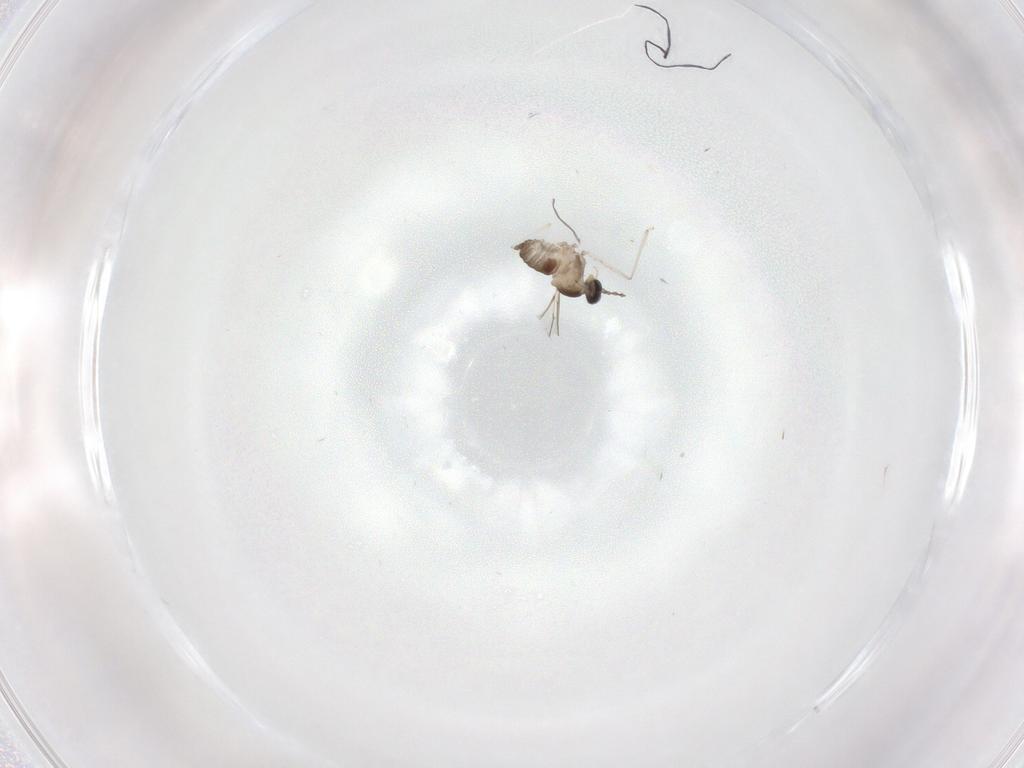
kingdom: Animalia
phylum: Arthropoda
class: Insecta
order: Diptera
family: Cecidomyiidae
